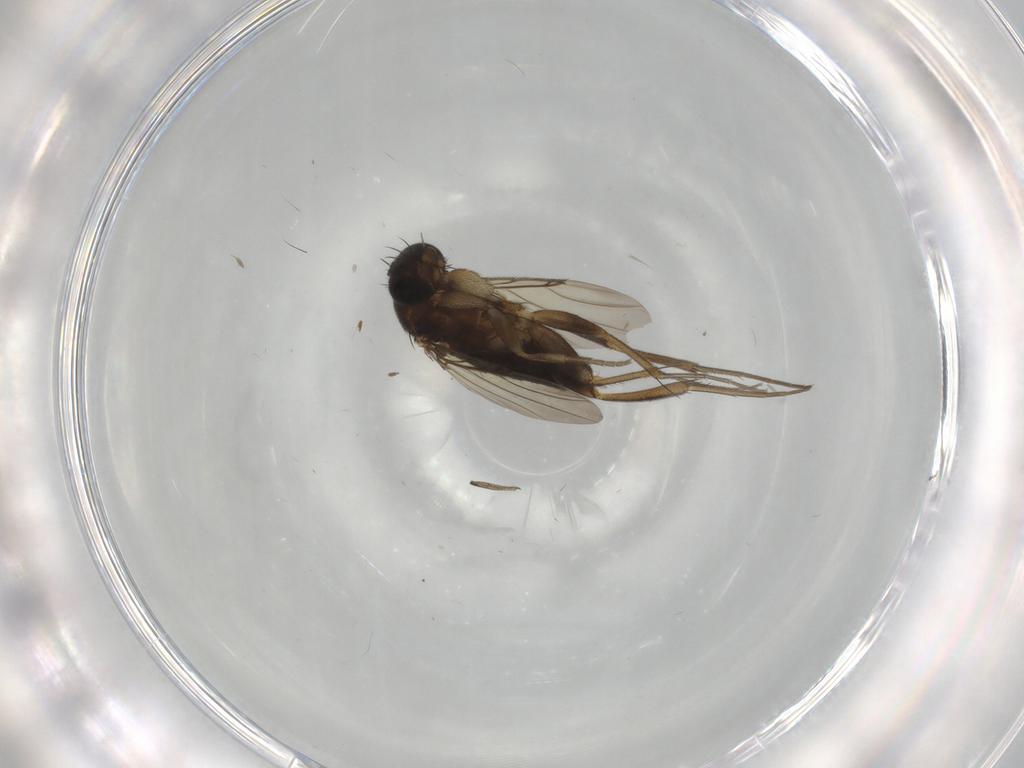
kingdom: Animalia
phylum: Arthropoda
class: Insecta
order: Diptera
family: Phoridae
